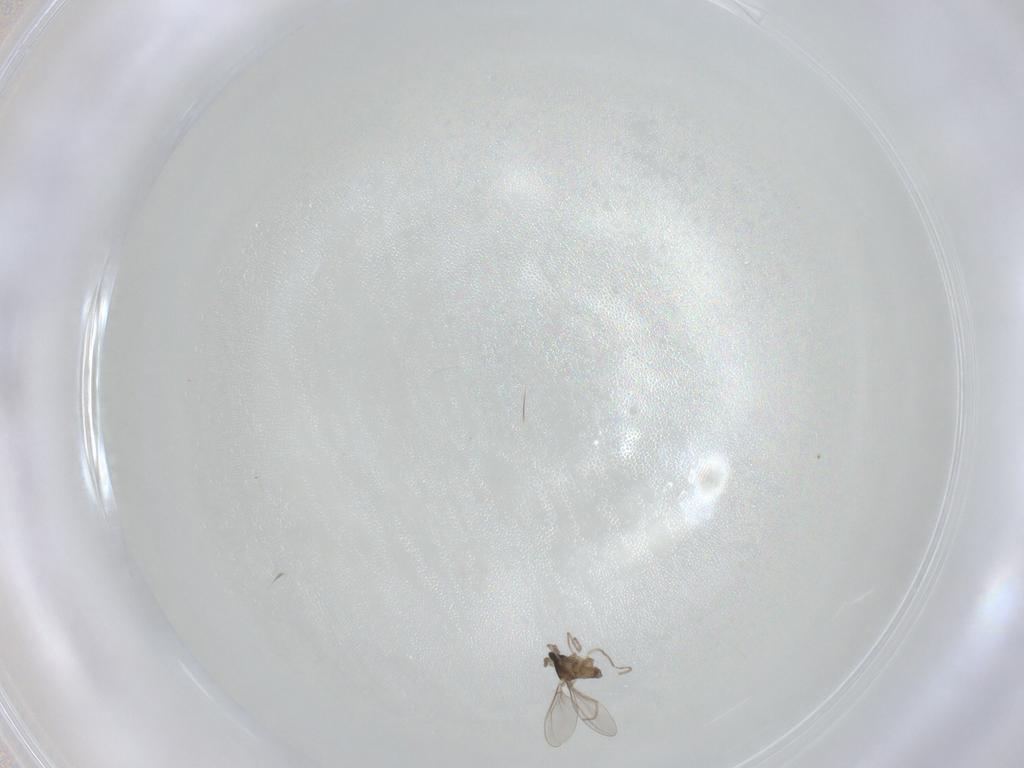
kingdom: Animalia
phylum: Arthropoda
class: Insecta
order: Diptera
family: Cecidomyiidae
